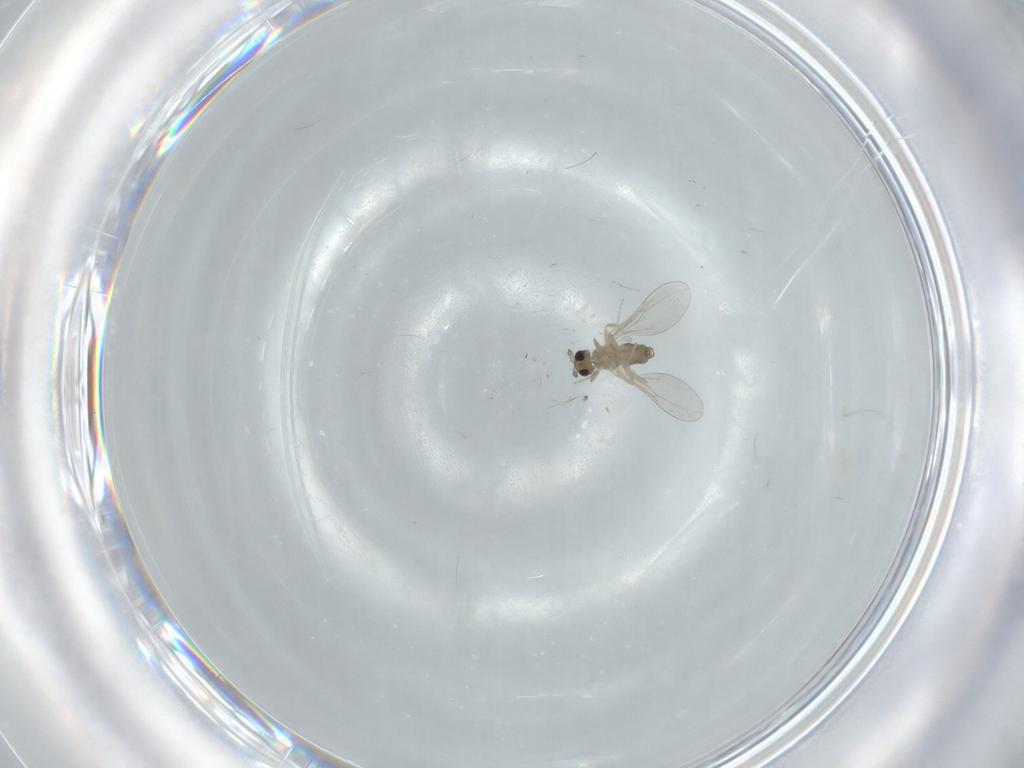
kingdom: Animalia
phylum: Arthropoda
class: Insecta
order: Diptera
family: Cecidomyiidae
